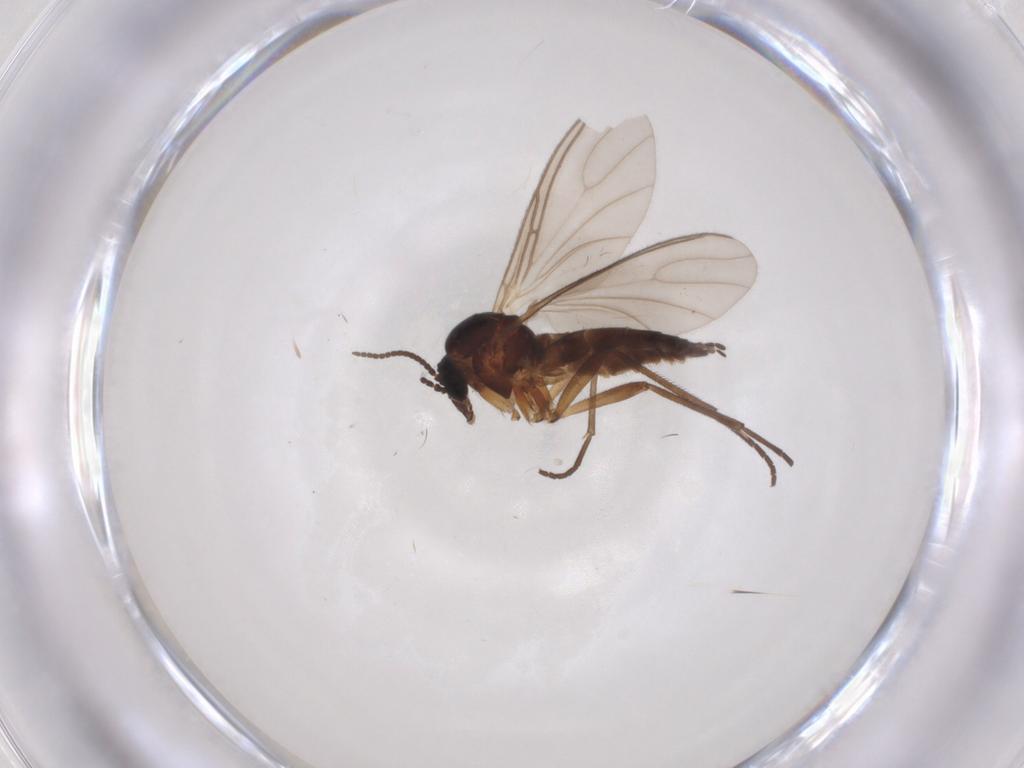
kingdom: Animalia
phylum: Arthropoda
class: Insecta
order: Diptera
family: Sciaridae
